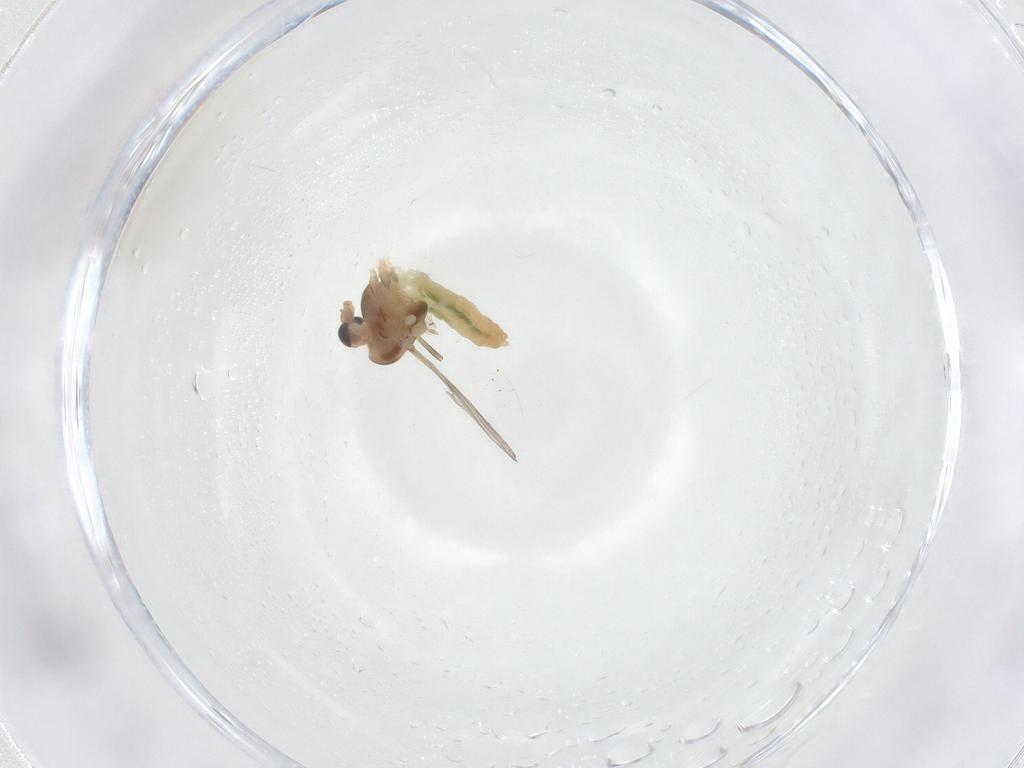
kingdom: Animalia
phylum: Arthropoda
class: Insecta
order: Diptera
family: Chironomidae
